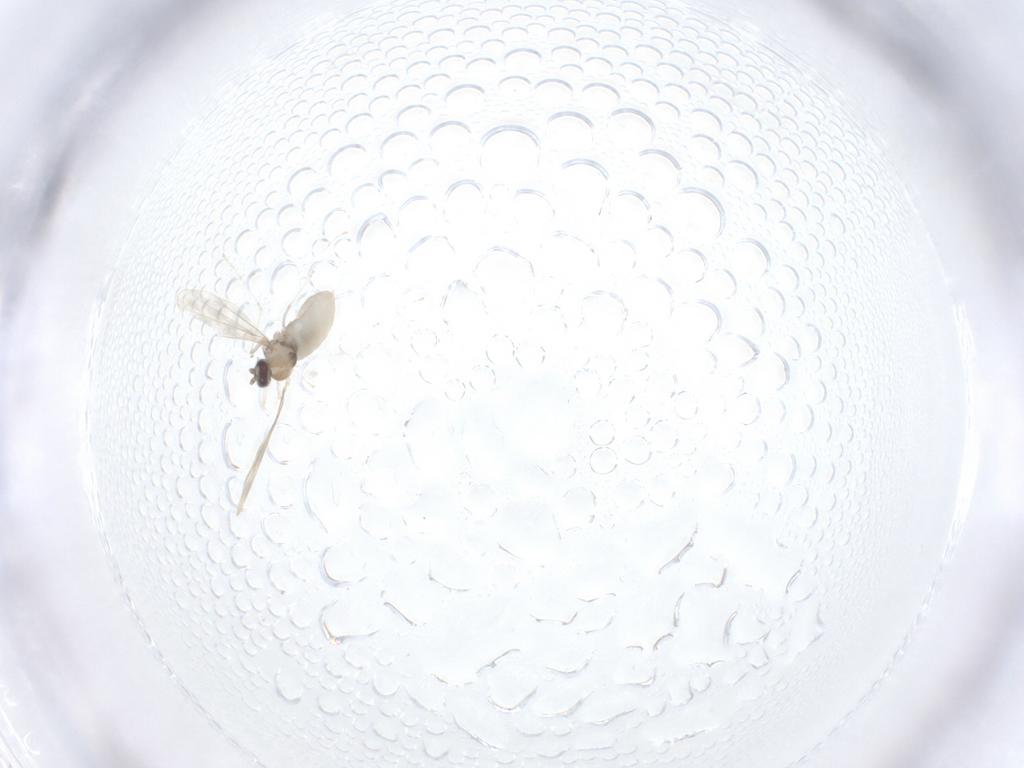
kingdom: Animalia
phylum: Arthropoda
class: Insecta
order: Diptera
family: Cecidomyiidae
